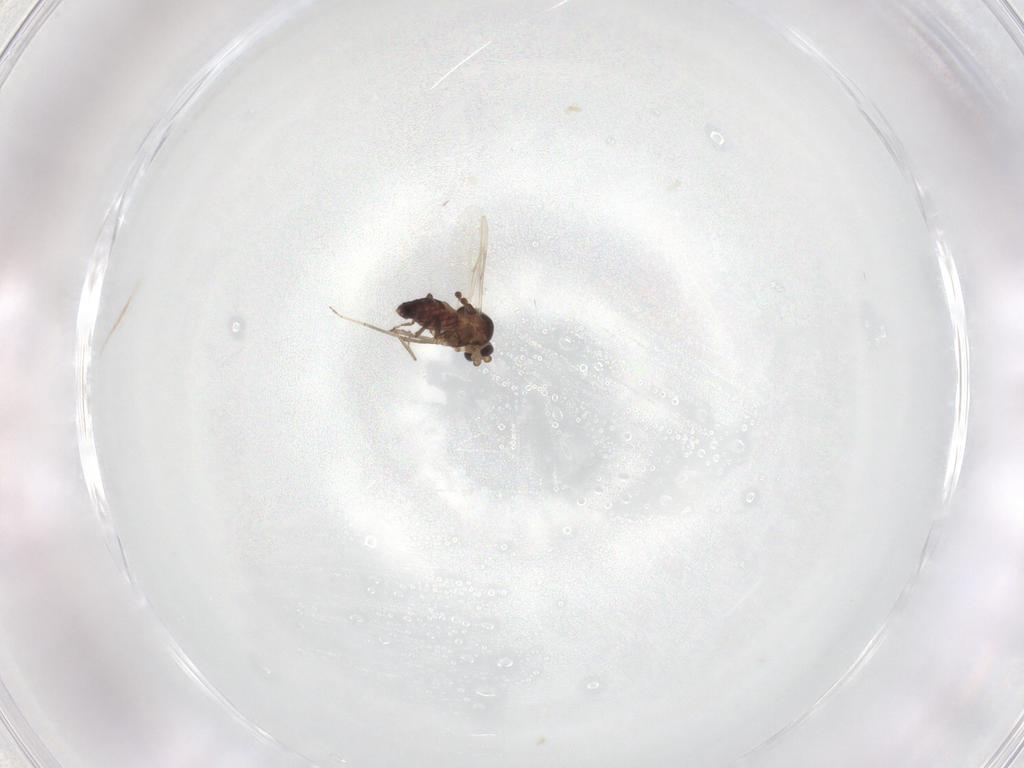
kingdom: Animalia
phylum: Arthropoda
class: Insecta
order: Diptera
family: Ceratopogonidae
